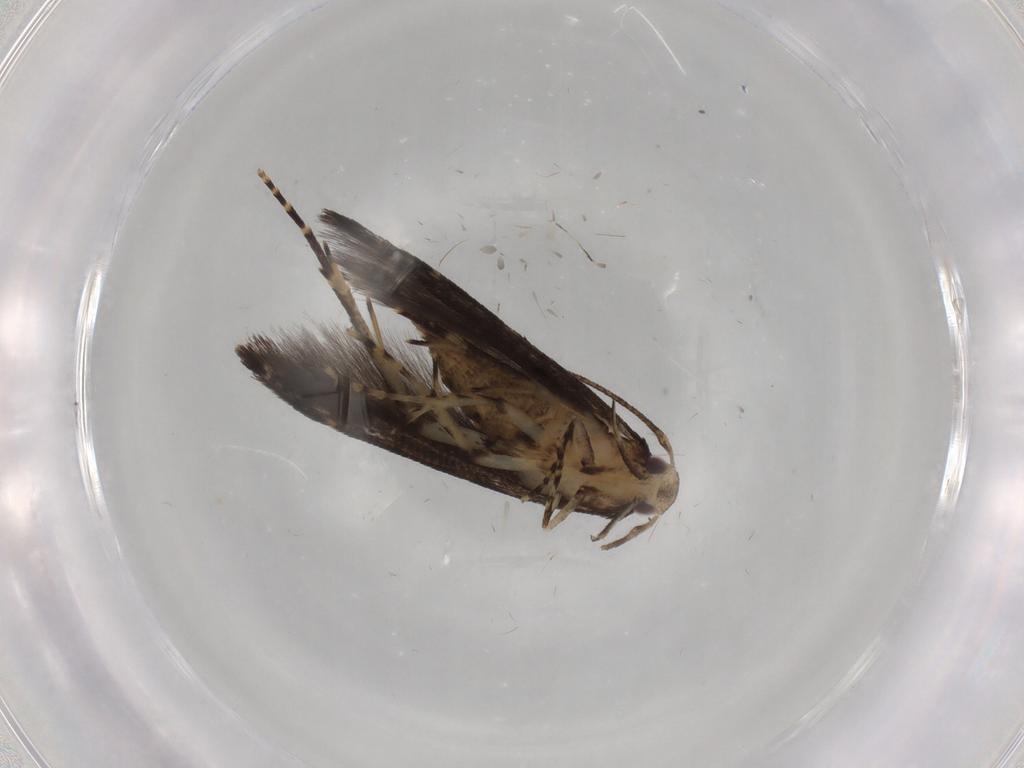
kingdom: Animalia
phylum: Arthropoda
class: Insecta
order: Lepidoptera
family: Cosmopterigidae
